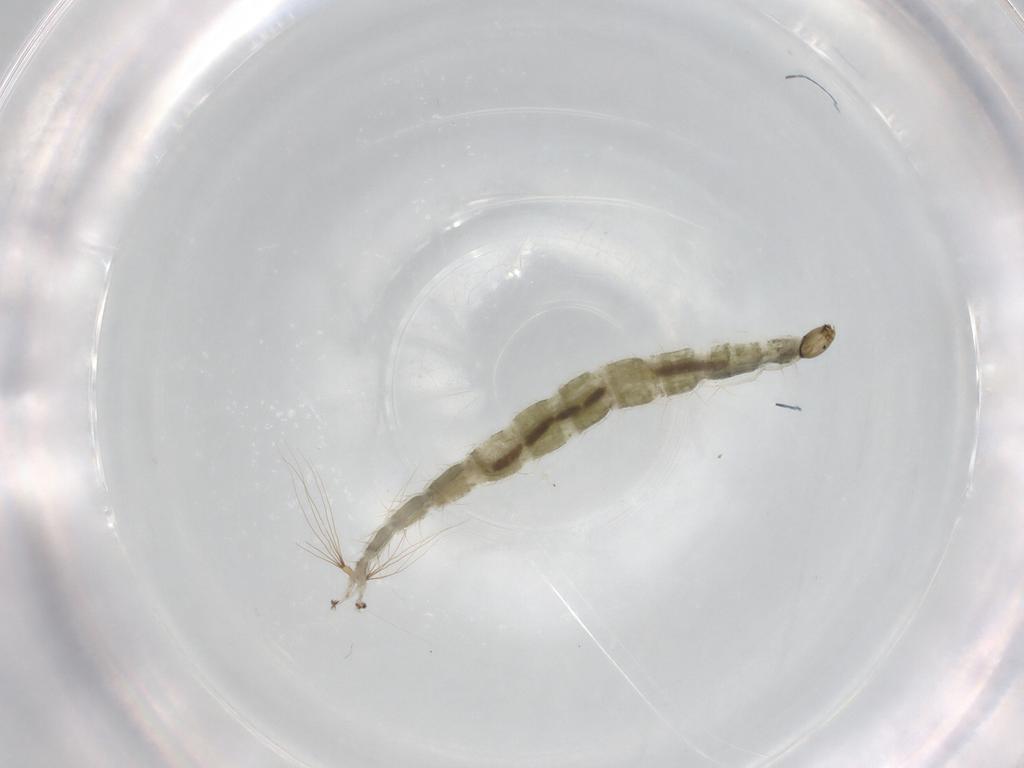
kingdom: Animalia
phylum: Arthropoda
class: Insecta
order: Diptera
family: Chironomidae
